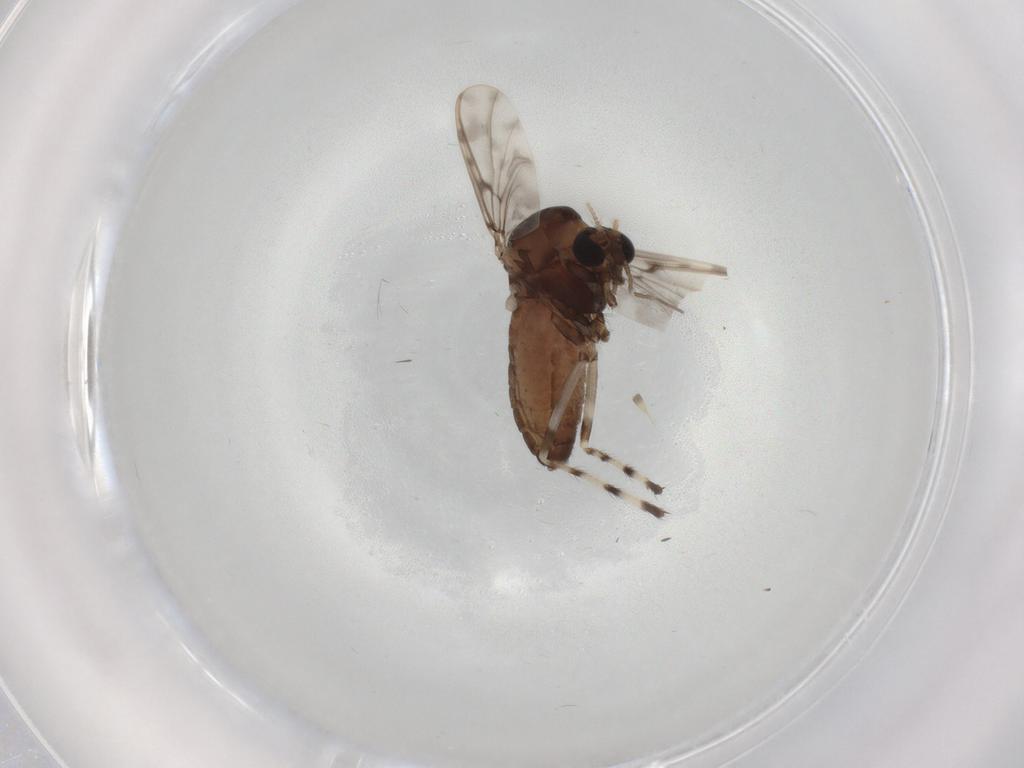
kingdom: Animalia
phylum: Arthropoda
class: Insecta
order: Diptera
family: Chironomidae
